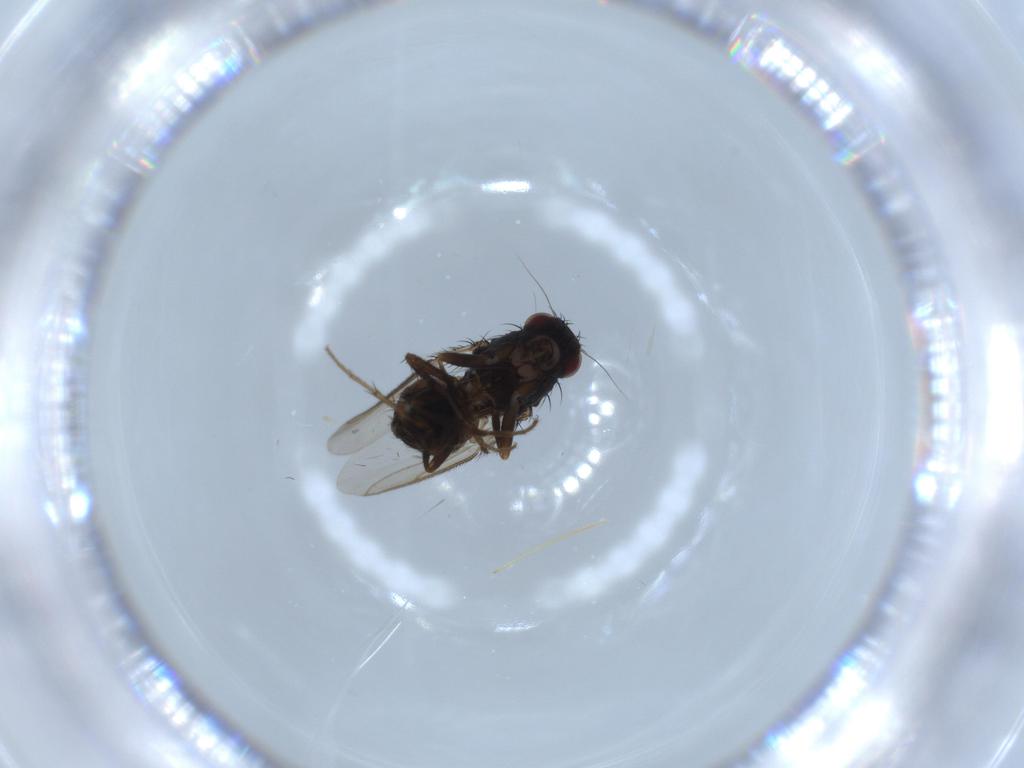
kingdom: Animalia
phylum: Arthropoda
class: Insecta
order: Diptera
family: Sphaeroceridae
